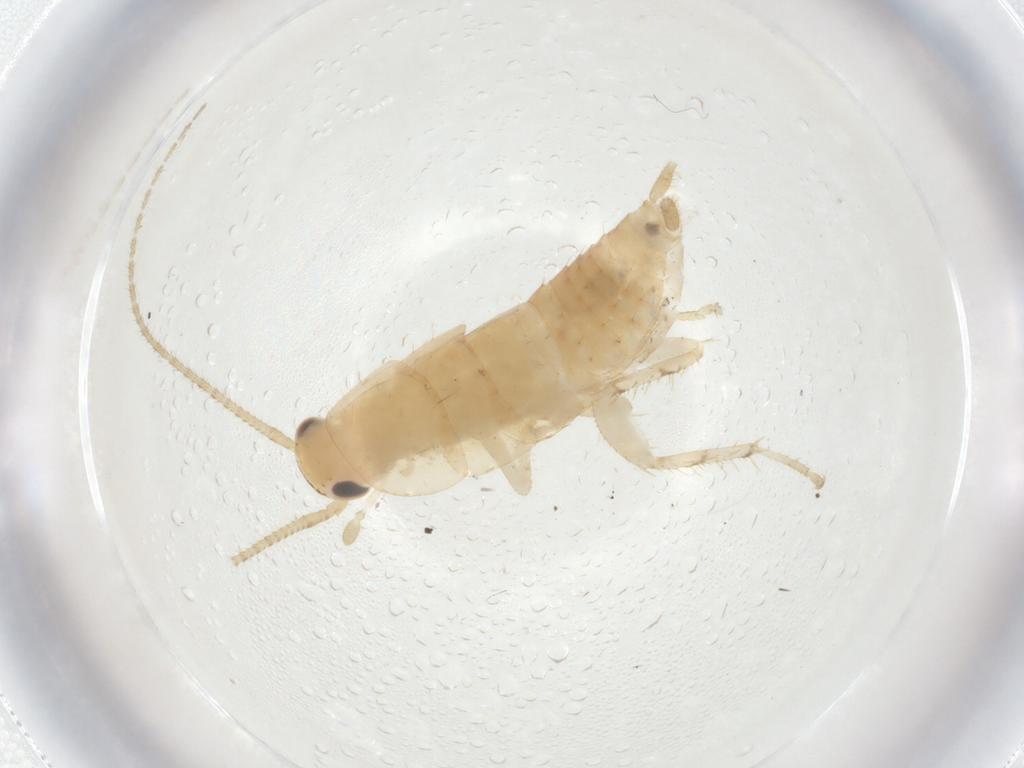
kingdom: Animalia
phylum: Arthropoda
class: Insecta
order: Blattodea
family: Ectobiidae
